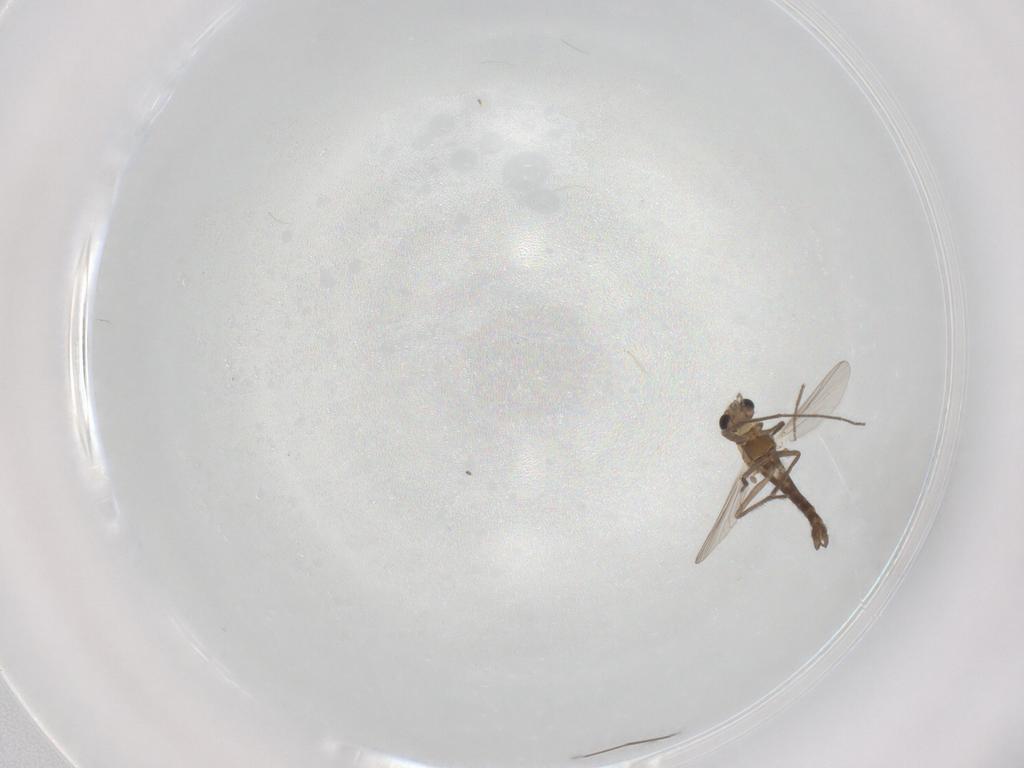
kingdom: Animalia
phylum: Arthropoda
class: Insecta
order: Diptera
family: Chironomidae
